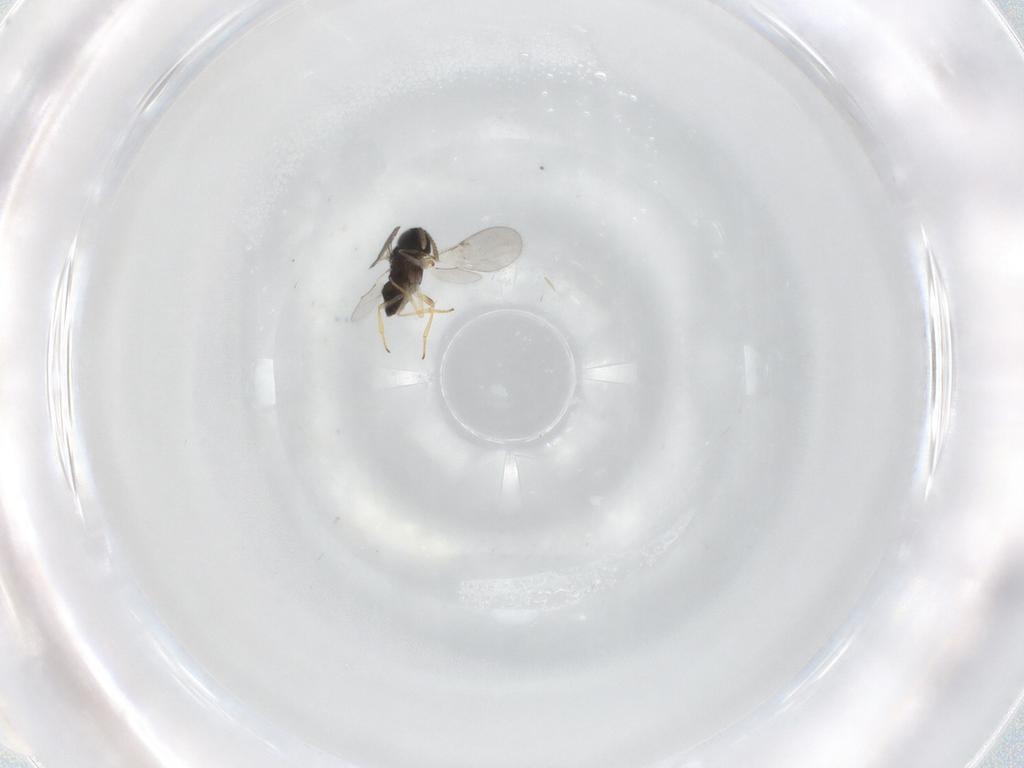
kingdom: Animalia
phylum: Arthropoda
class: Insecta
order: Hymenoptera
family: Encyrtidae
